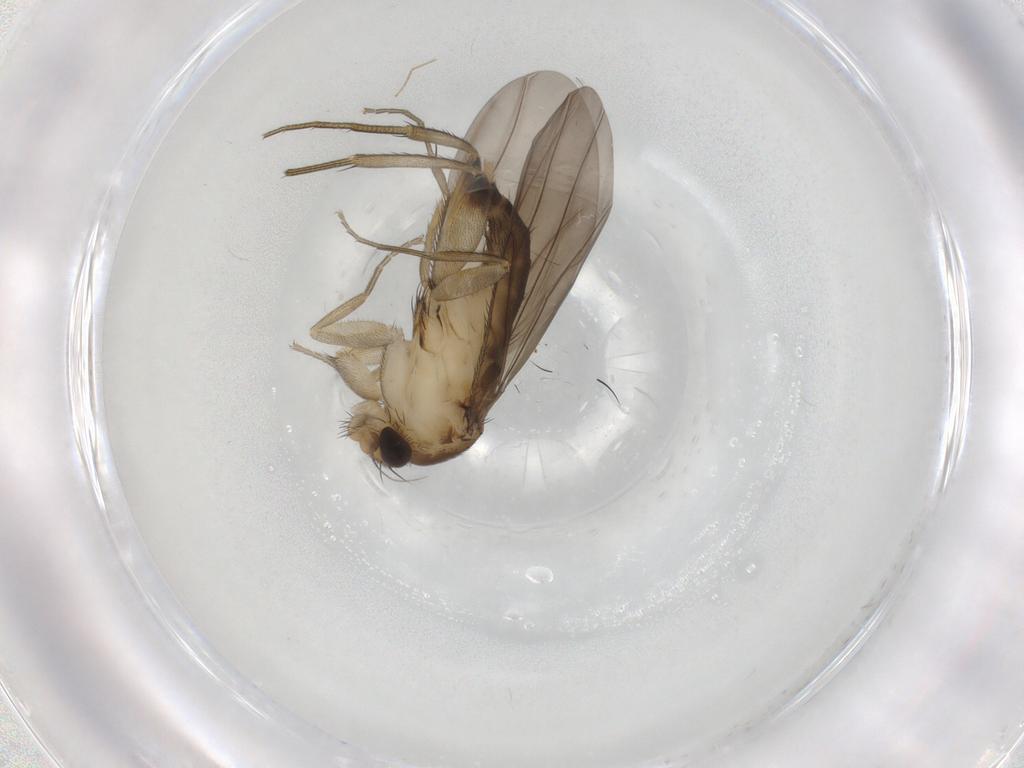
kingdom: Animalia
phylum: Arthropoda
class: Insecta
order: Diptera
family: Phoridae
